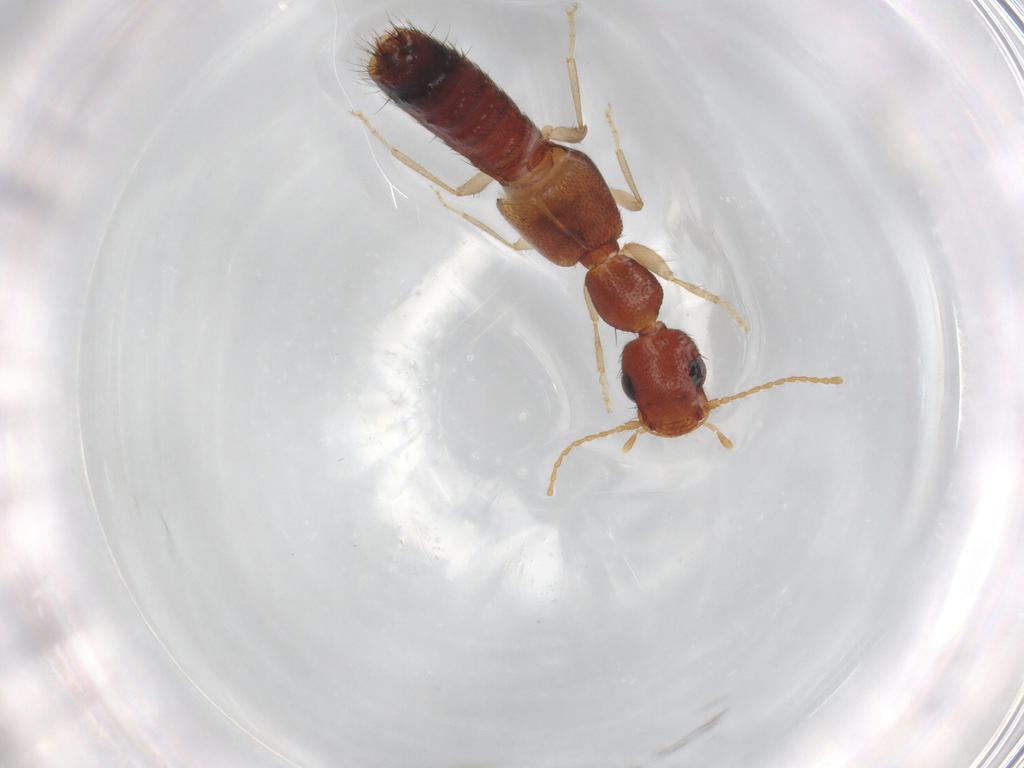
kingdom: Animalia
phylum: Arthropoda
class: Insecta
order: Coleoptera
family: Staphylinidae
